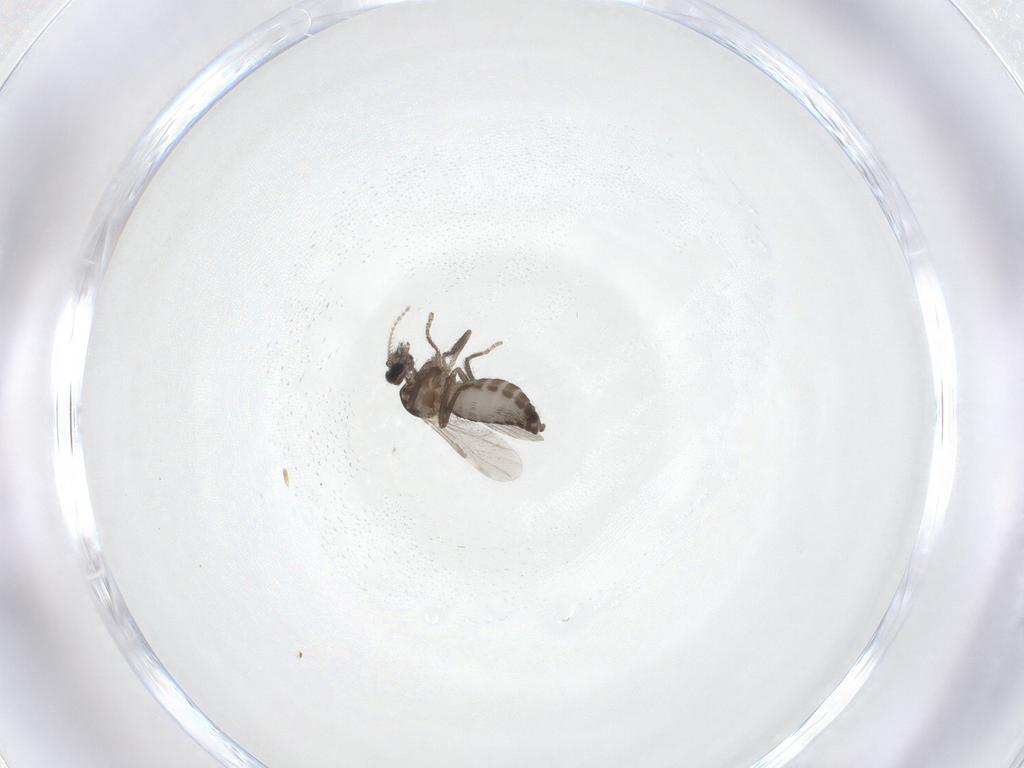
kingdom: Animalia
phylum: Arthropoda
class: Insecta
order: Diptera
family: Ceratopogonidae
